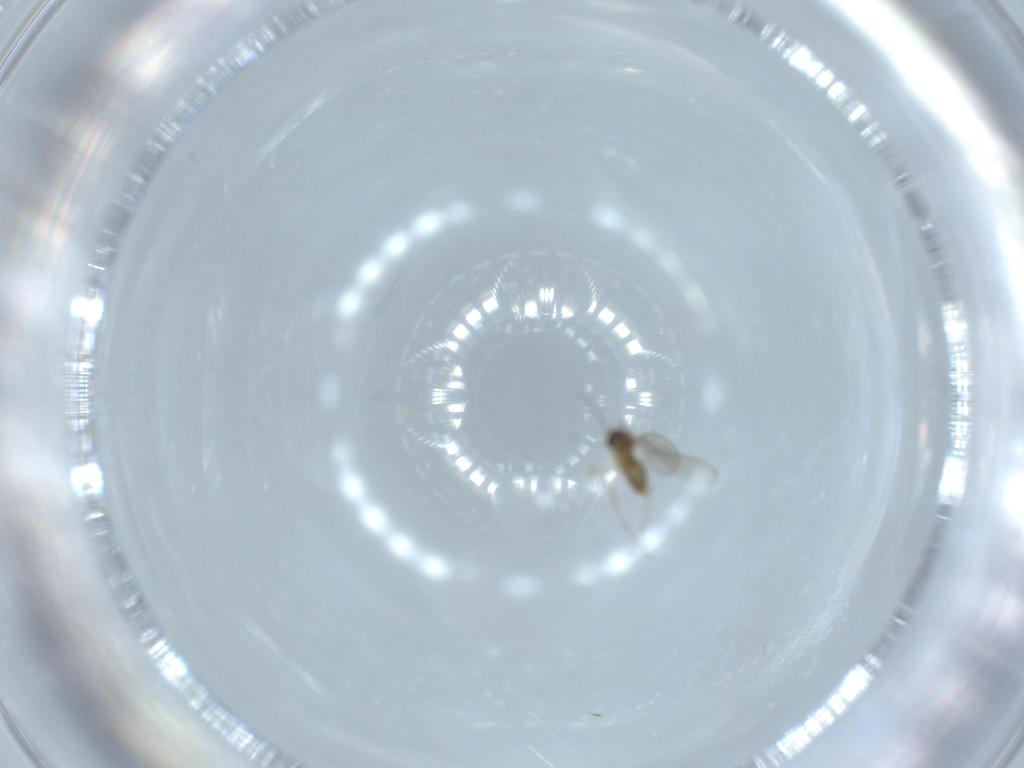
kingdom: Animalia
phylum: Arthropoda
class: Insecta
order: Diptera
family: Cecidomyiidae
